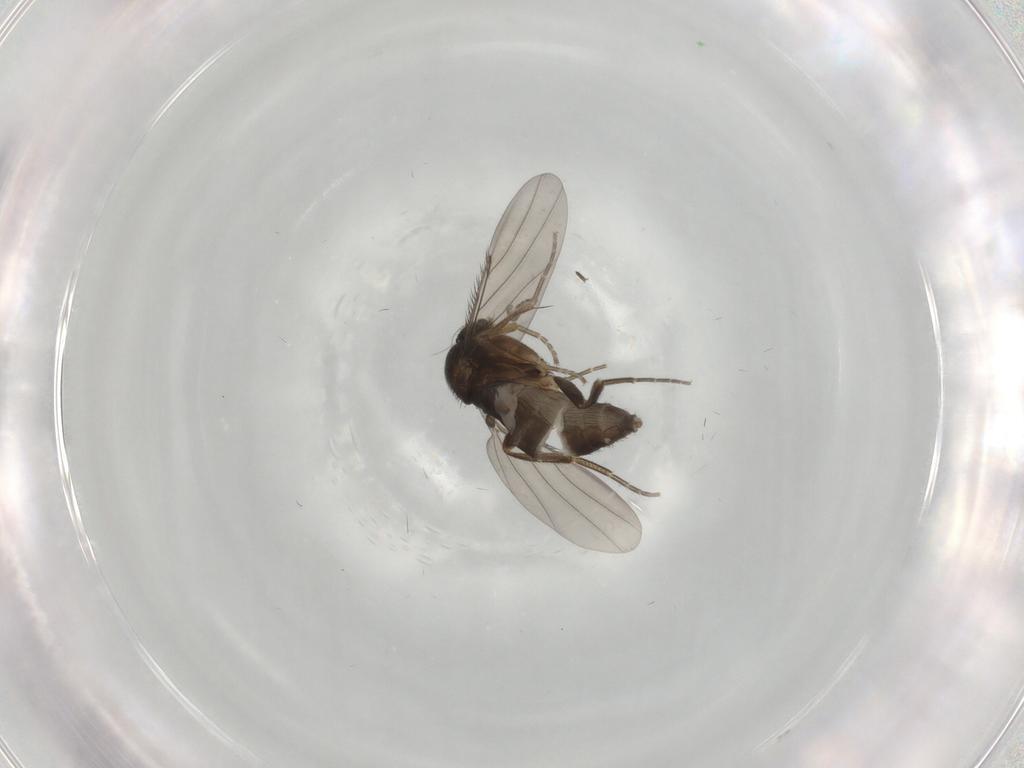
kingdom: Animalia
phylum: Arthropoda
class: Insecta
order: Diptera
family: Phoridae
